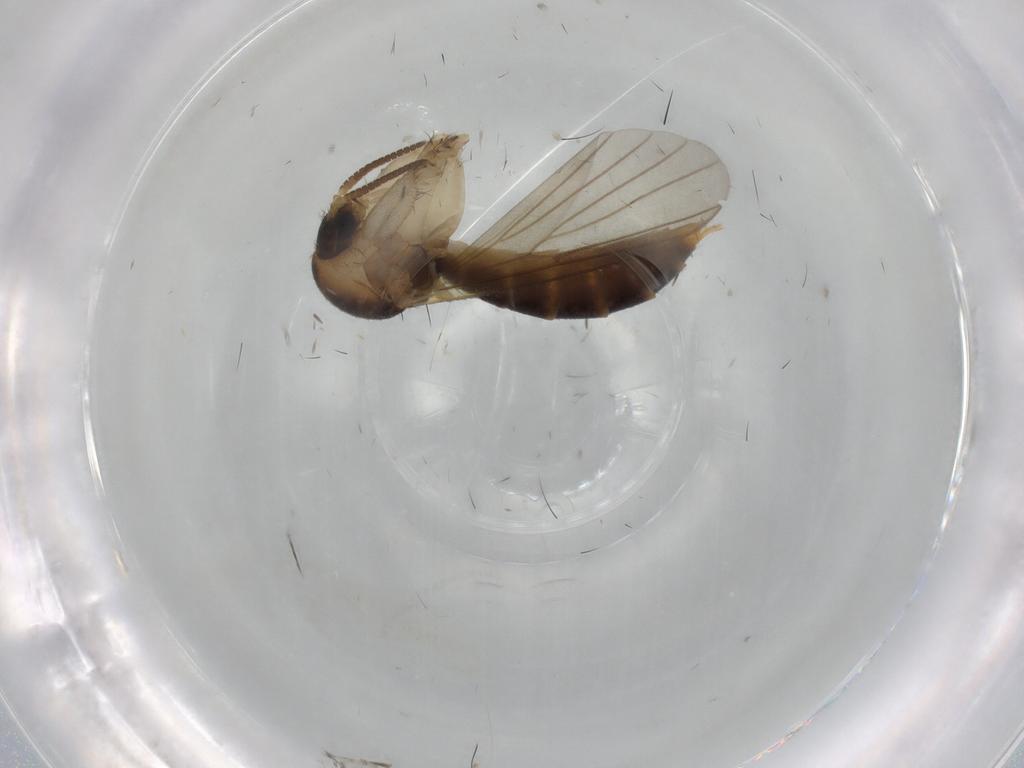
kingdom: Animalia
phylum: Arthropoda
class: Insecta
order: Diptera
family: Mycetophilidae
